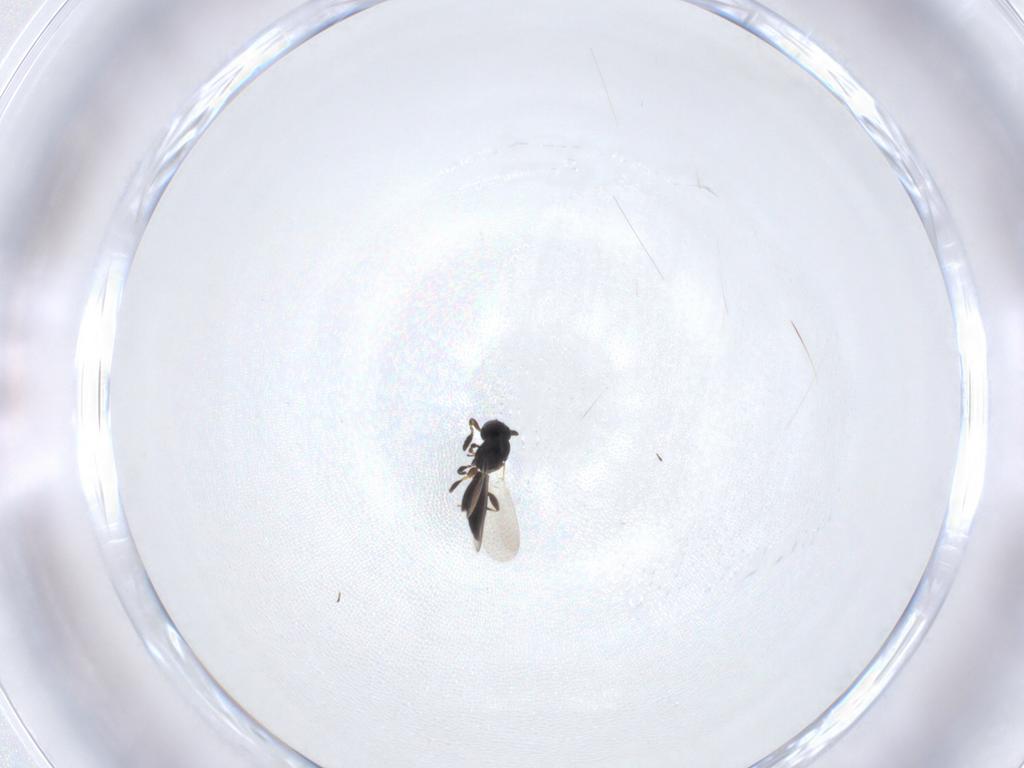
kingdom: Animalia
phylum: Arthropoda
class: Insecta
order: Hymenoptera
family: Platygastridae
